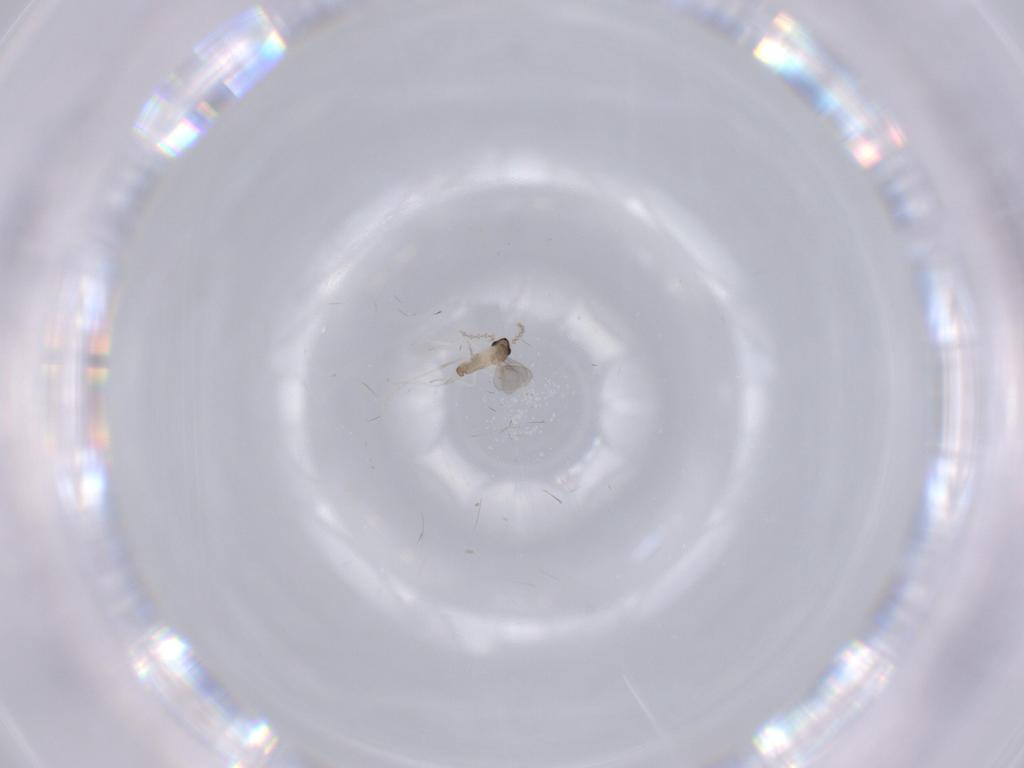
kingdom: Animalia
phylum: Arthropoda
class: Insecta
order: Diptera
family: Cecidomyiidae
